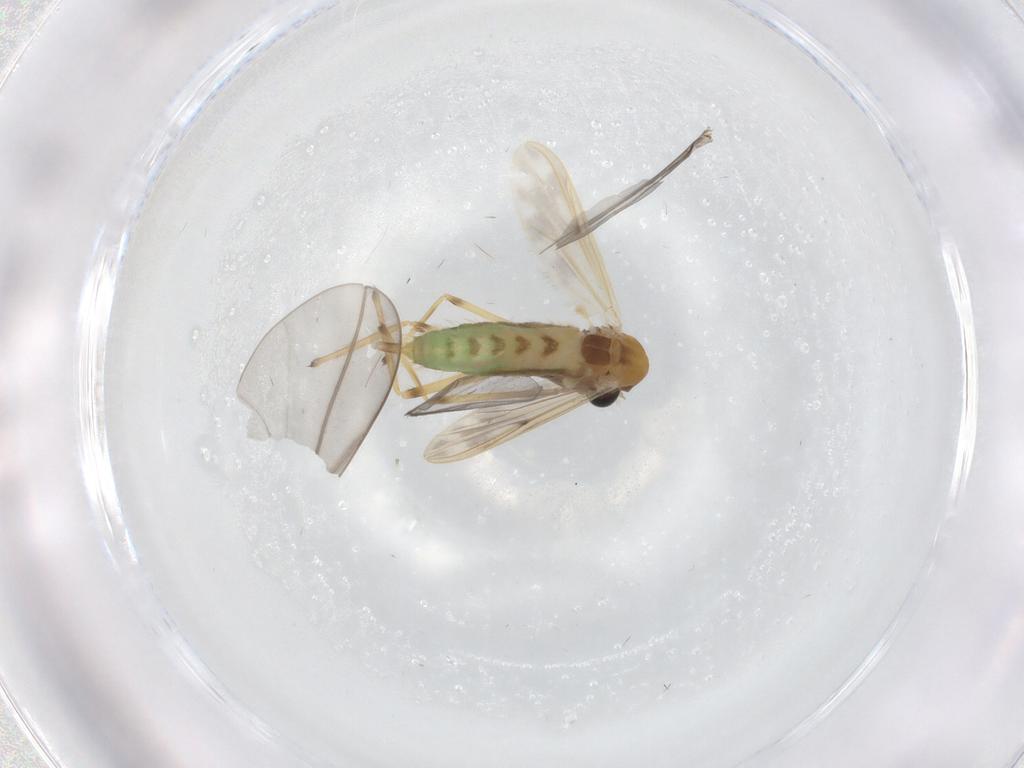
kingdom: Animalia
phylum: Arthropoda
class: Insecta
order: Diptera
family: Chironomidae
